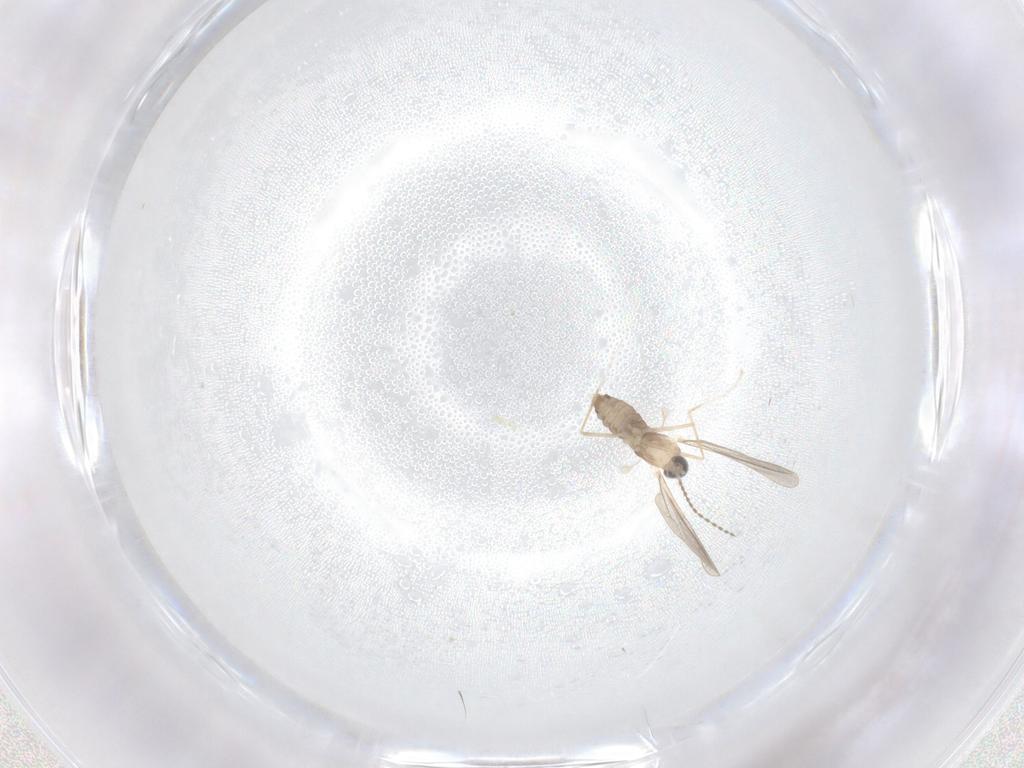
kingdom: Animalia
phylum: Arthropoda
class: Insecta
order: Diptera
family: Cecidomyiidae
